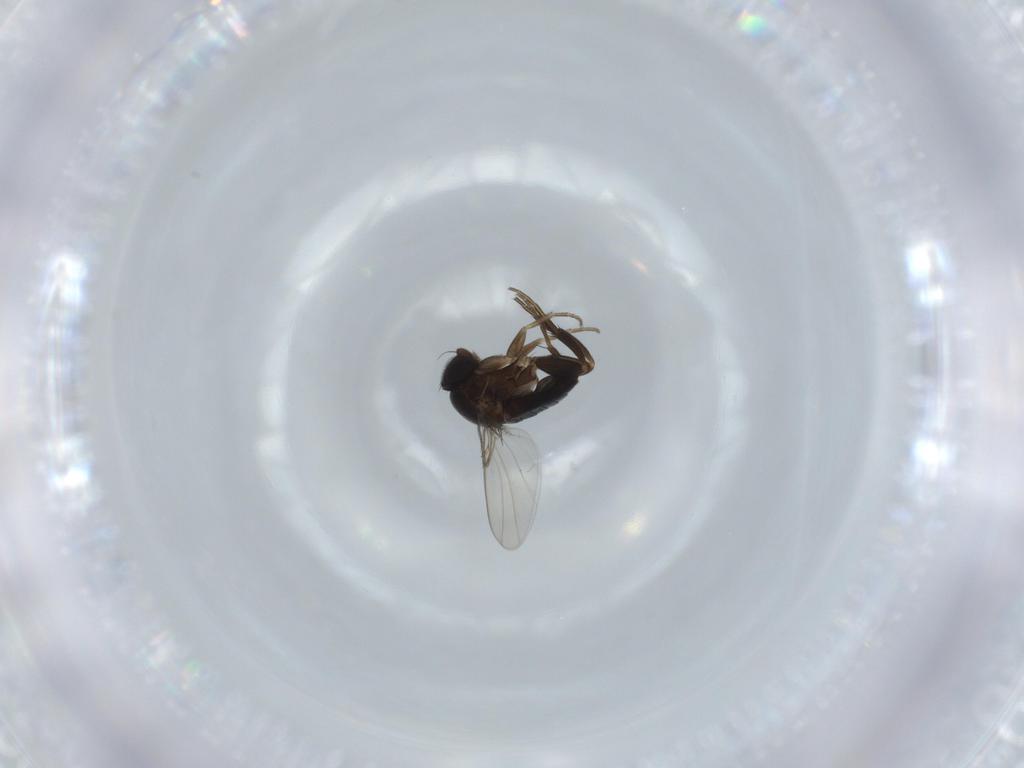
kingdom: Animalia
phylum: Arthropoda
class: Insecta
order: Diptera
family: Phoridae
